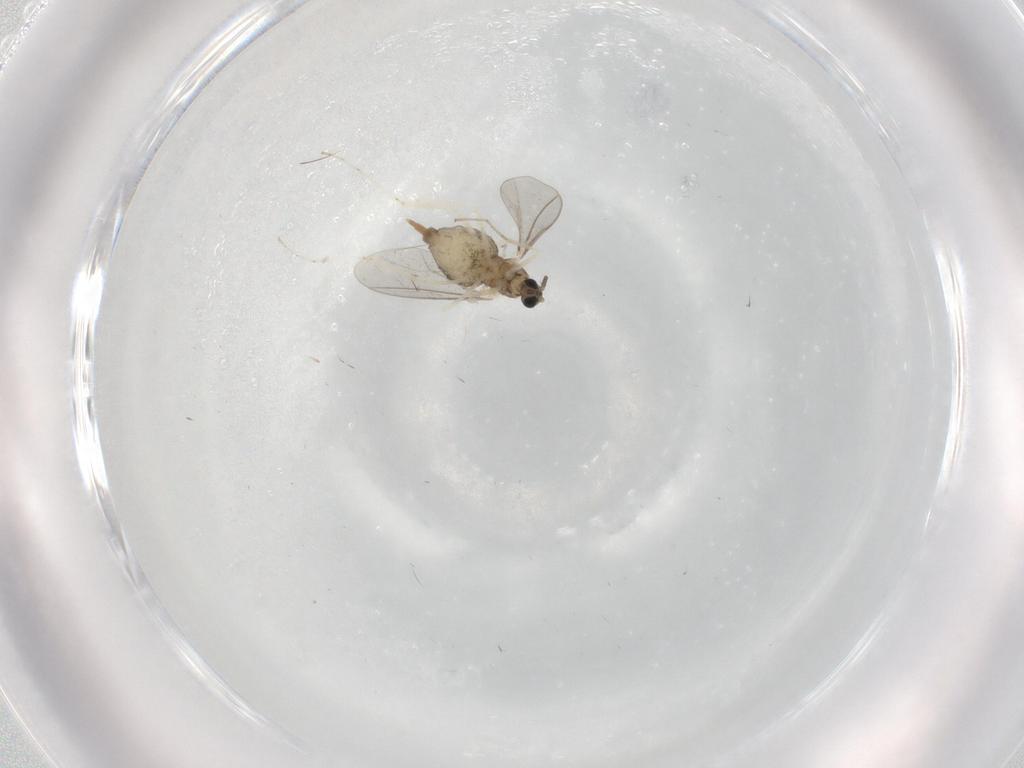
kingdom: Animalia
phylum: Arthropoda
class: Insecta
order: Diptera
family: Cecidomyiidae
